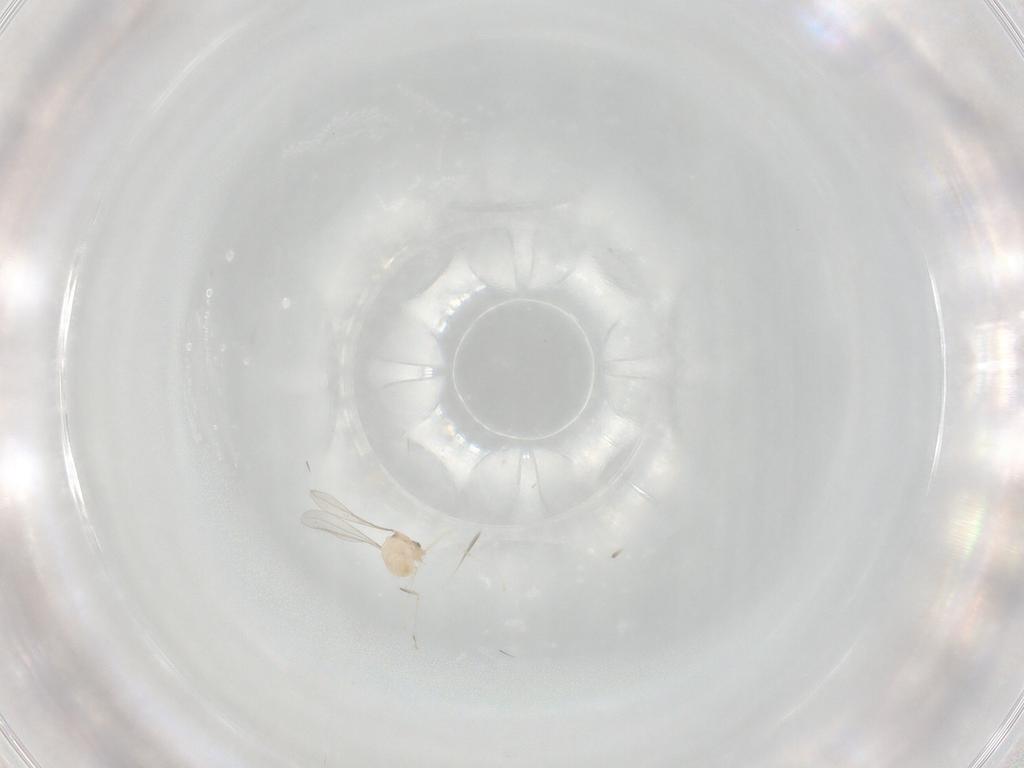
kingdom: Animalia
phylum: Arthropoda
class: Insecta
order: Diptera
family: Cecidomyiidae
